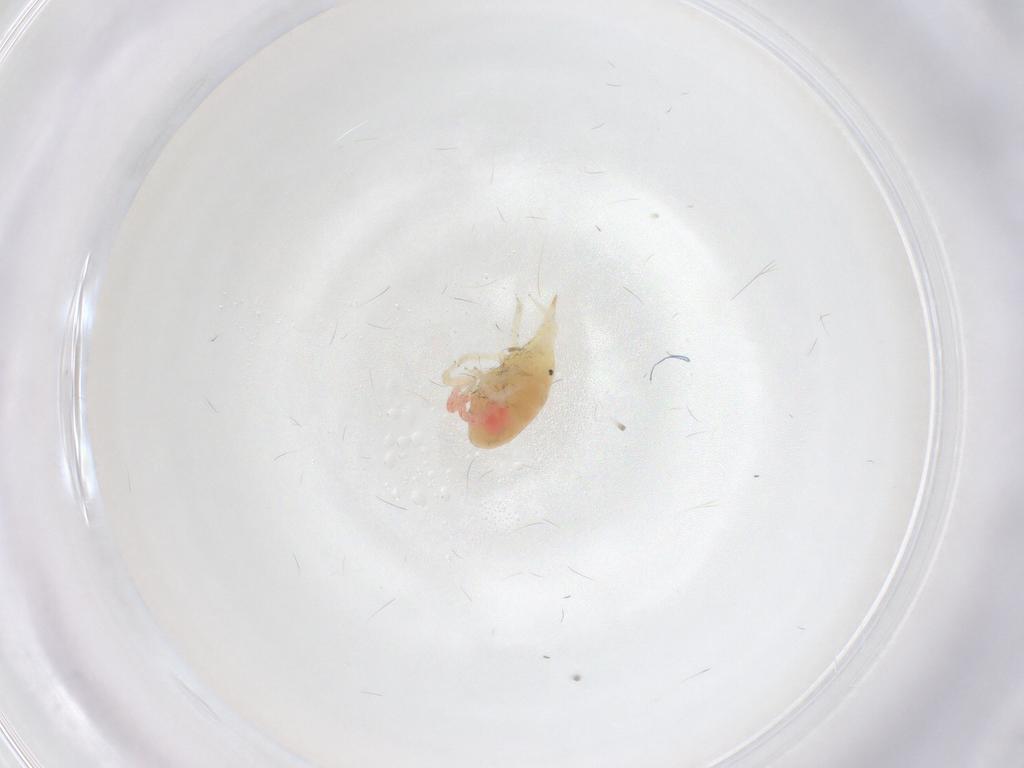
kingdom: Animalia
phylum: Arthropoda
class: Arachnida
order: Trombidiformes
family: Bdellidae
